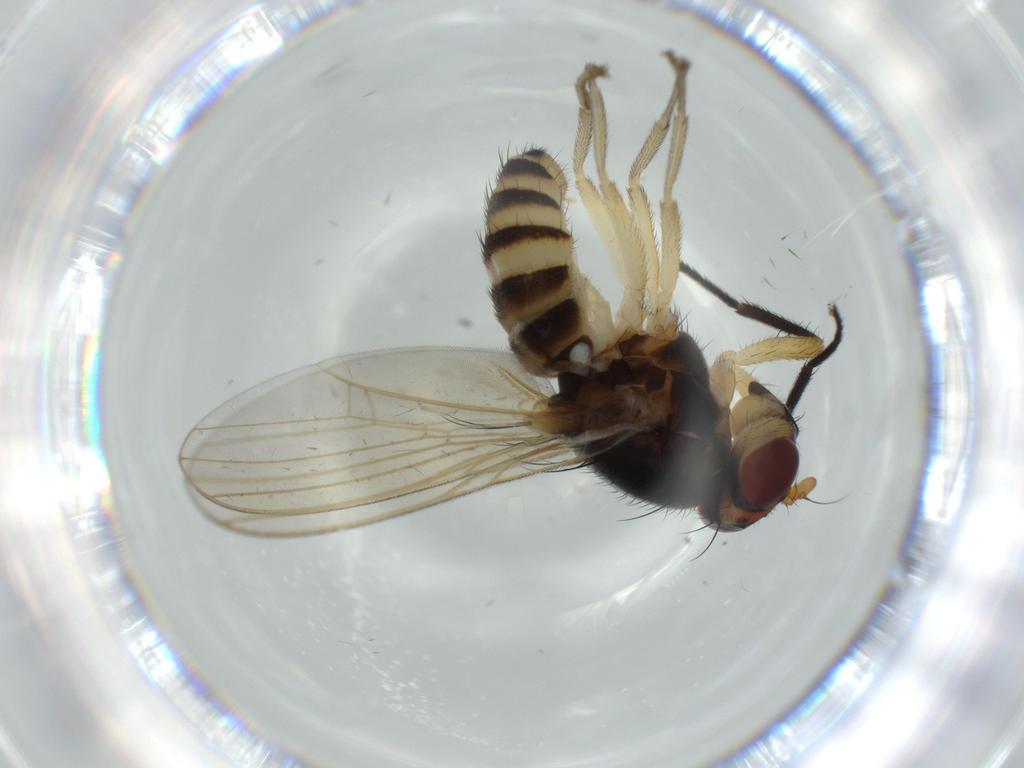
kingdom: Animalia
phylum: Arthropoda
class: Insecta
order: Diptera
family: Lauxaniidae
